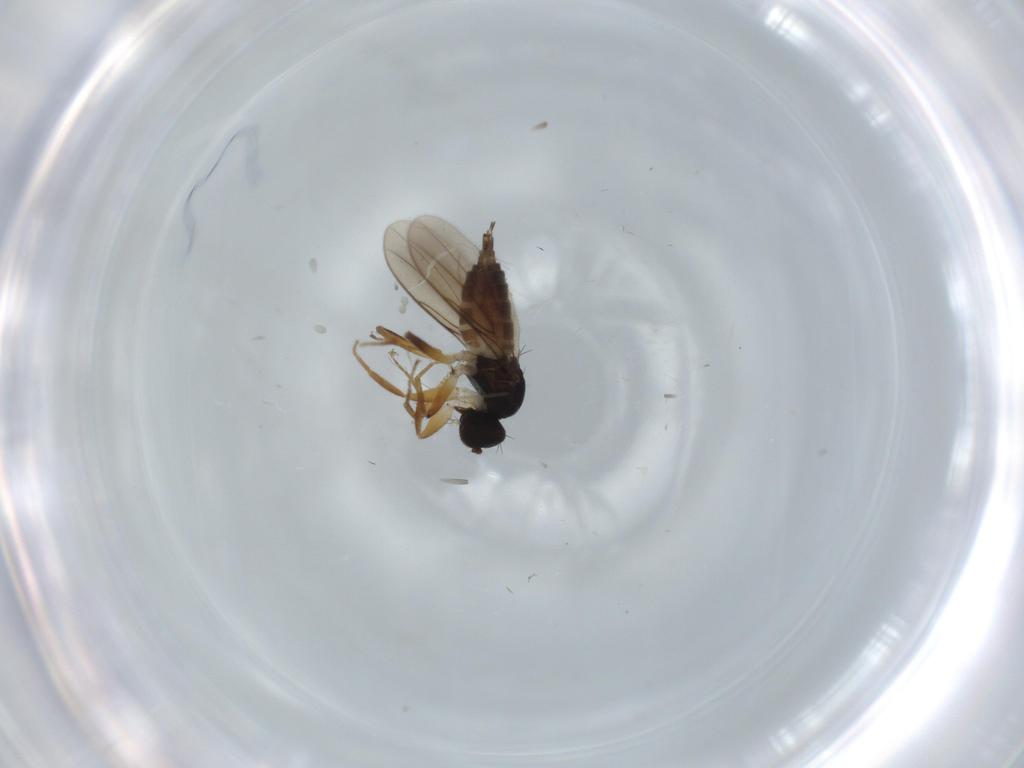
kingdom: Animalia
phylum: Arthropoda
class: Insecta
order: Diptera
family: Hybotidae
